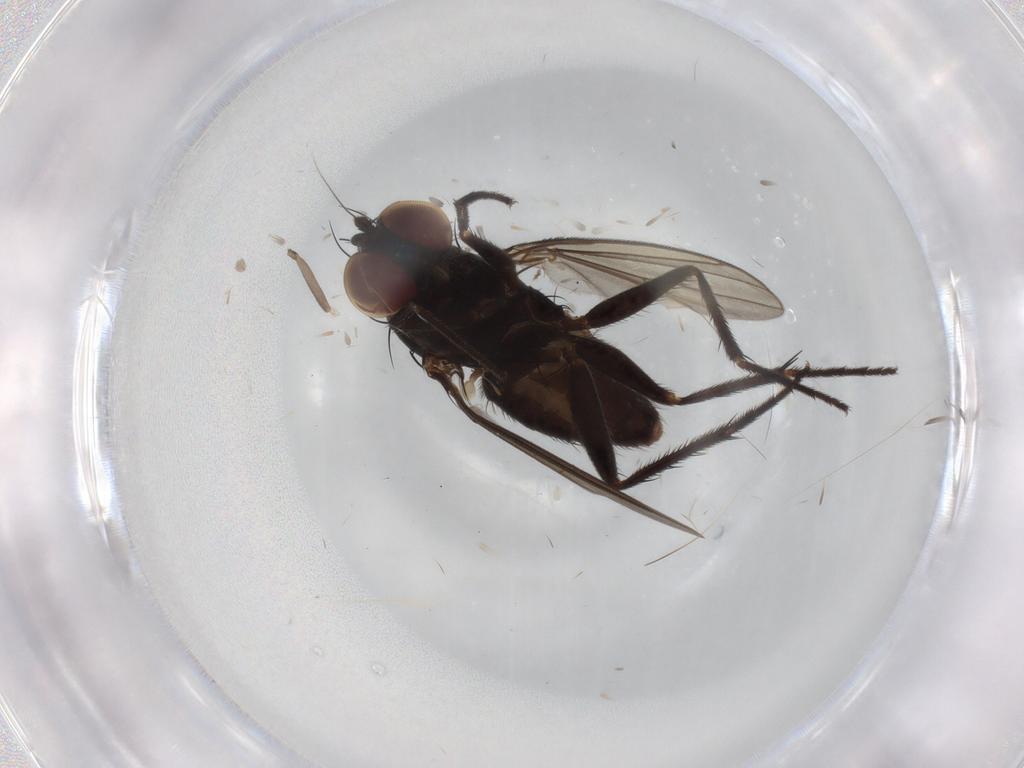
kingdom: Animalia
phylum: Arthropoda
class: Insecta
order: Diptera
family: Dolichopodidae
